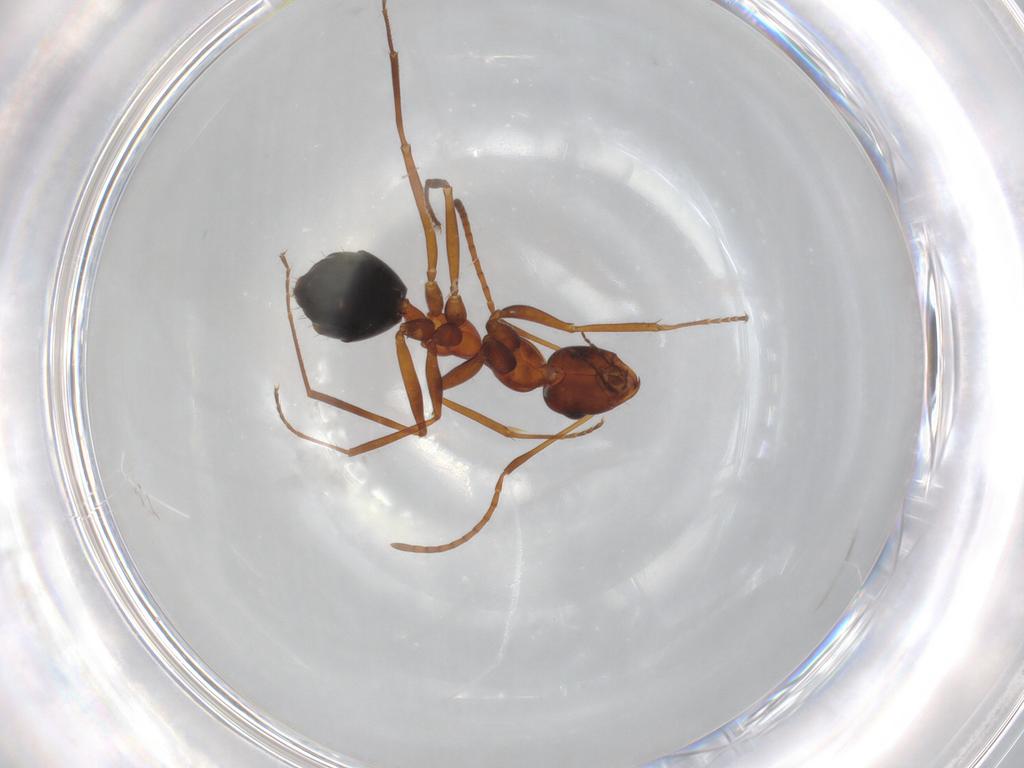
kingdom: Animalia
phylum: Arthropoda
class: Insecta
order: Hymenoptera
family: Formicidae
